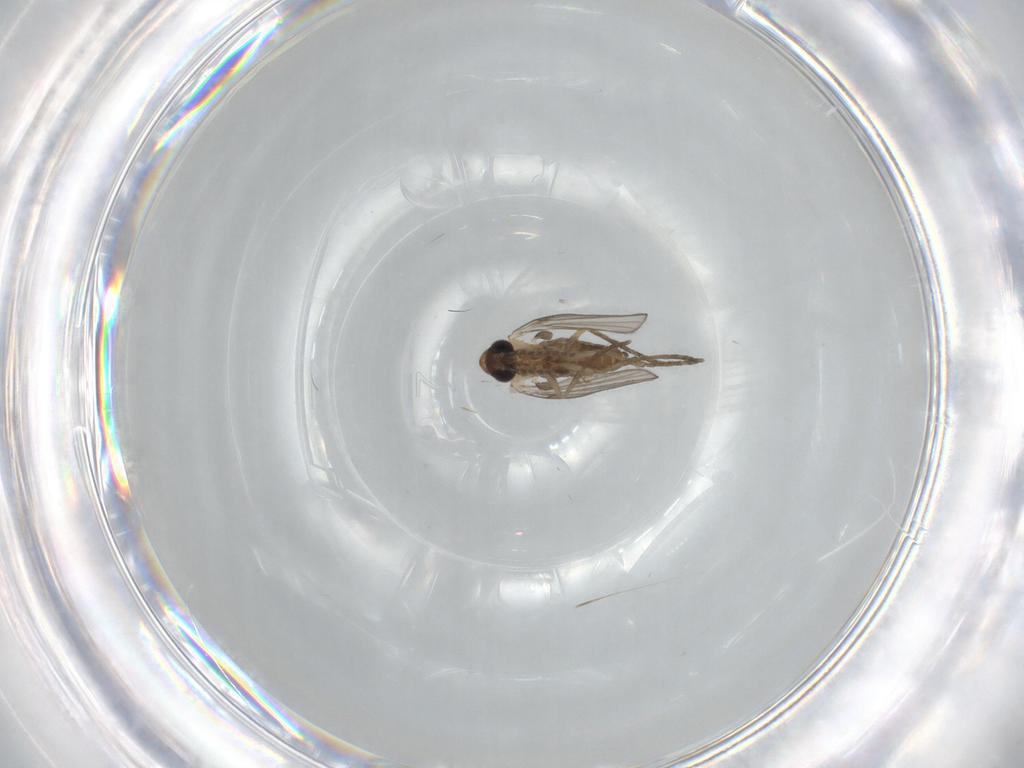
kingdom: Animalia
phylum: Arthropoda
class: Insecta
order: Diptera
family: Psychodidae
